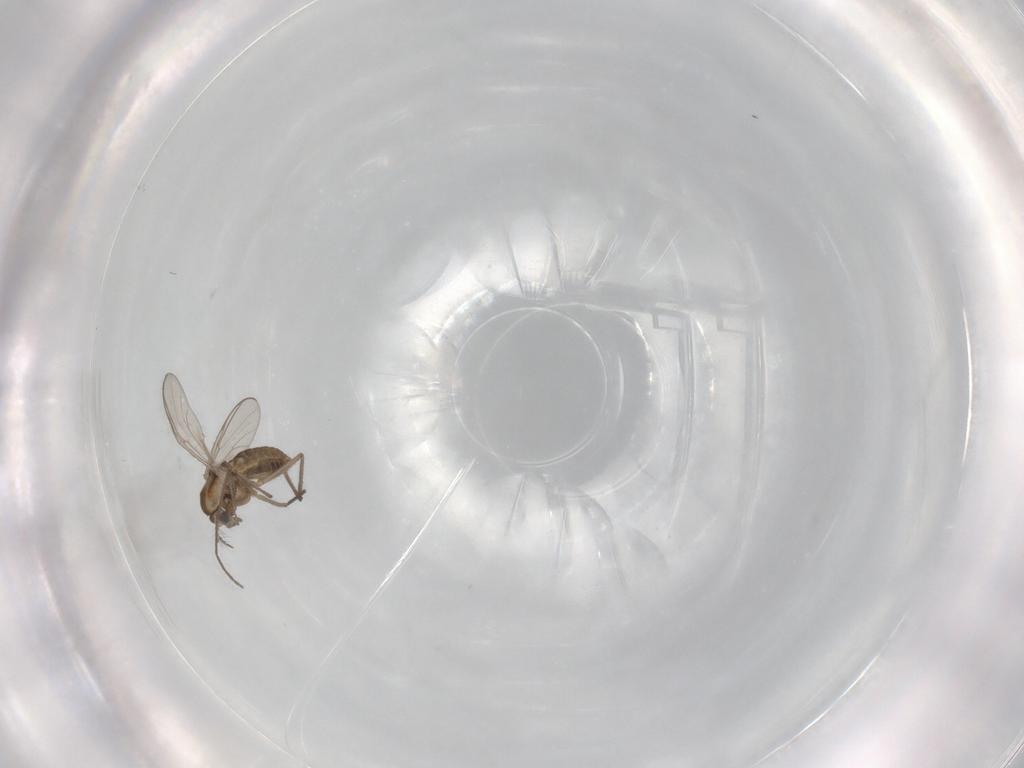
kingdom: Animalia
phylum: Arthropoda
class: Insecta
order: Diptera
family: Chironomidae
